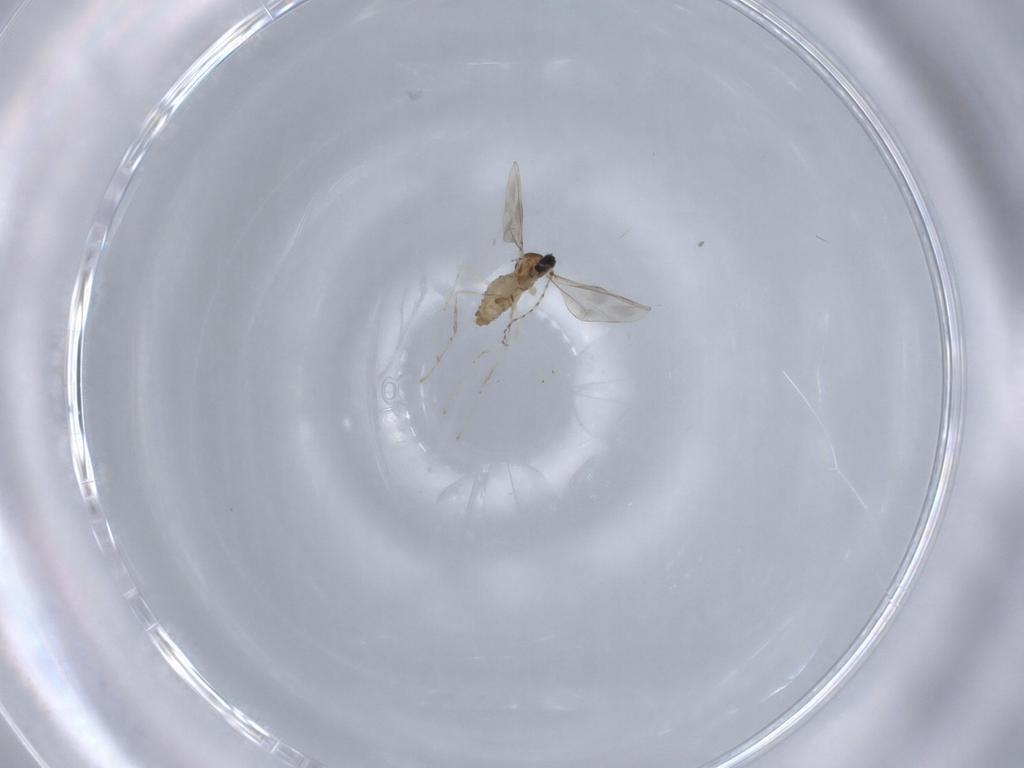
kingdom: Animalia
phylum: Arthropoda
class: Insecta
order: Diptera
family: Cecidomyiidae
